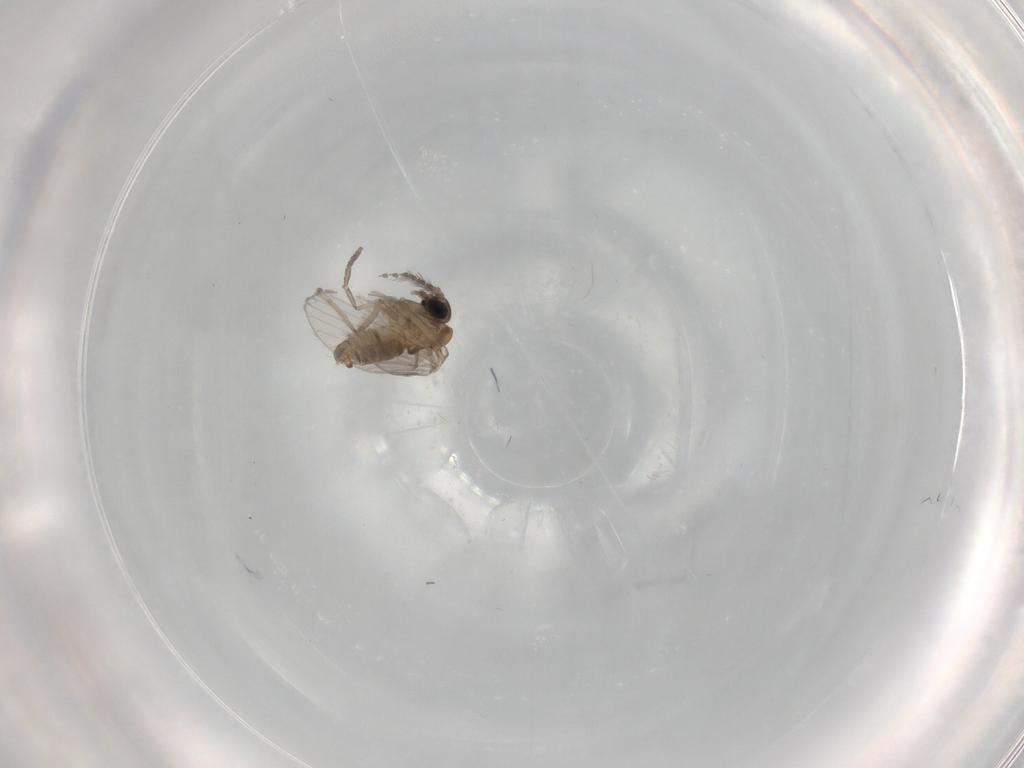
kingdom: Animalia
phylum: Arthropoda
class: Insecta
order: Diptera
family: Psychodidae
